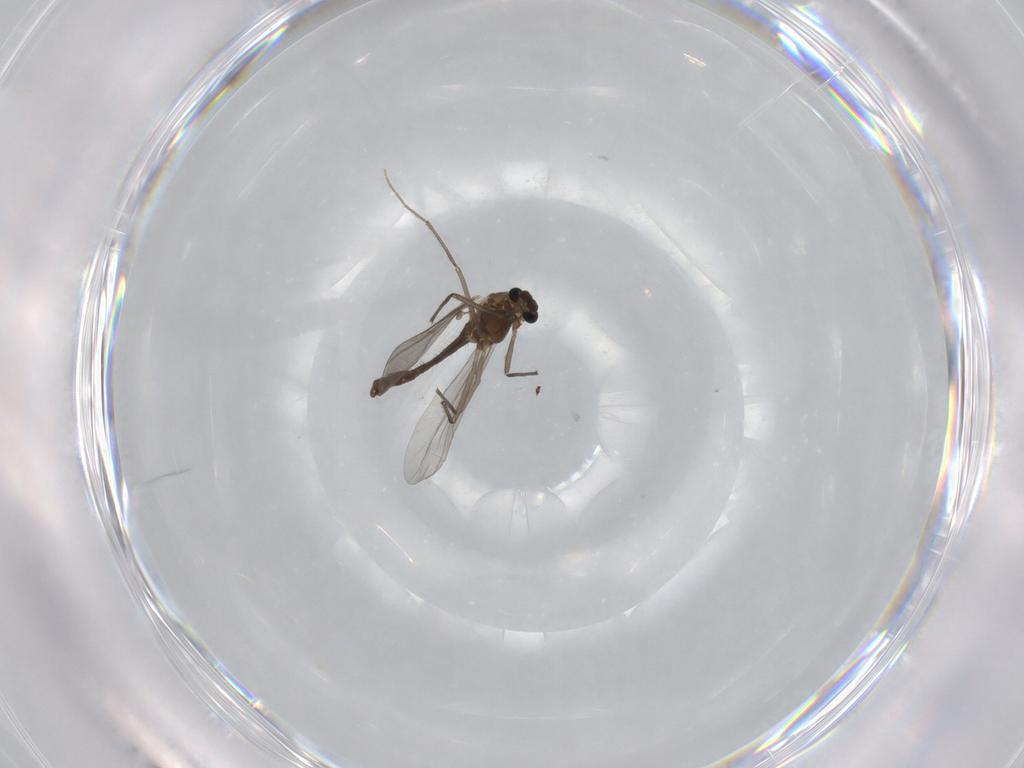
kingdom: Animalia
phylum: Arthropoda
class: Insecta
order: Diptera
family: Chironomidae
